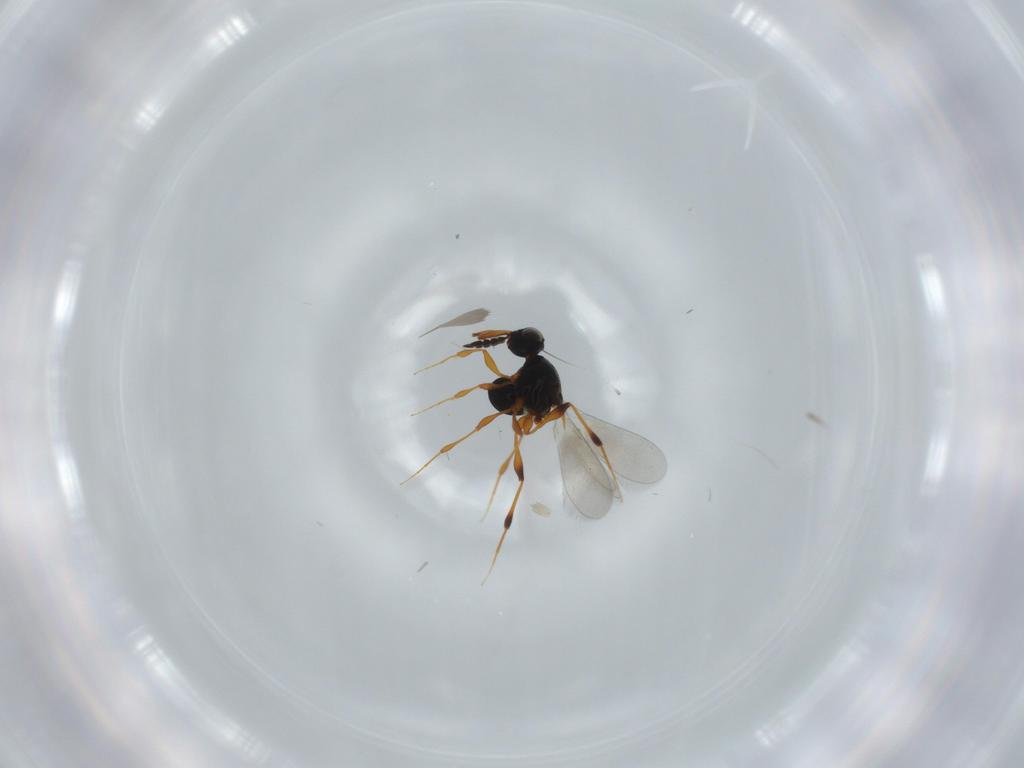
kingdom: Animalia
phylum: Arthropoda
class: Insecta
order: Hymenoptera
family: Platygastridae
